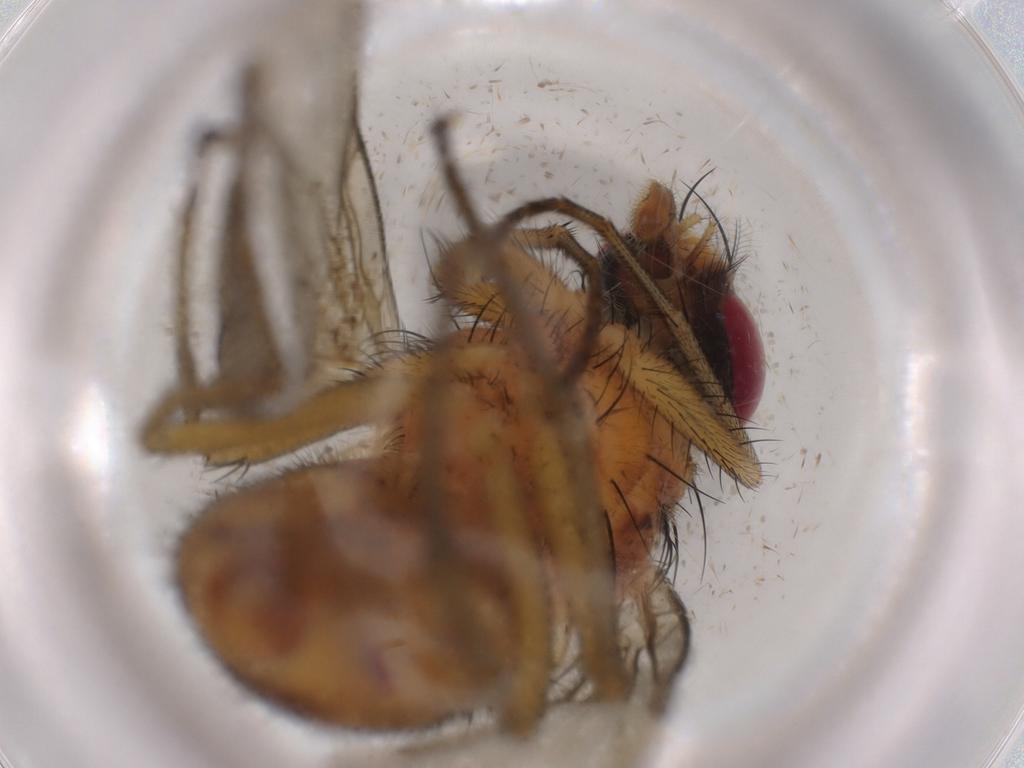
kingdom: Animalia
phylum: Arthropoda
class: Insecta
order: Diptera
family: Muscidae
